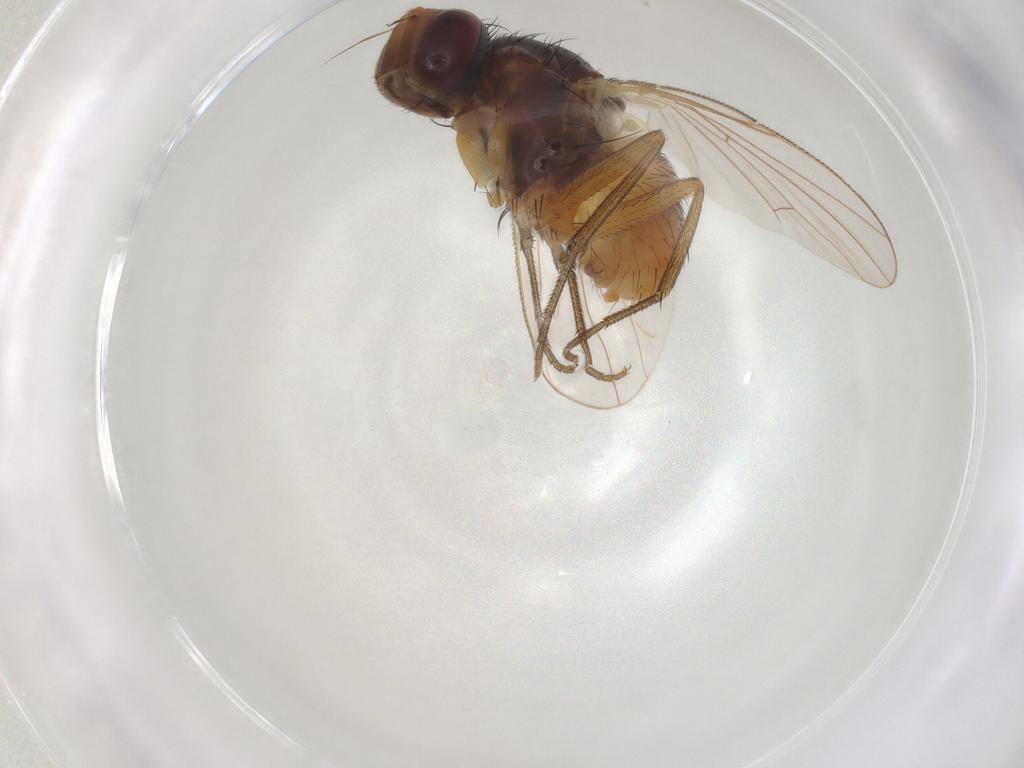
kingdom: Animalia
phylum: Arthropoda
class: Insecta
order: Diptera
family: Muscidae
